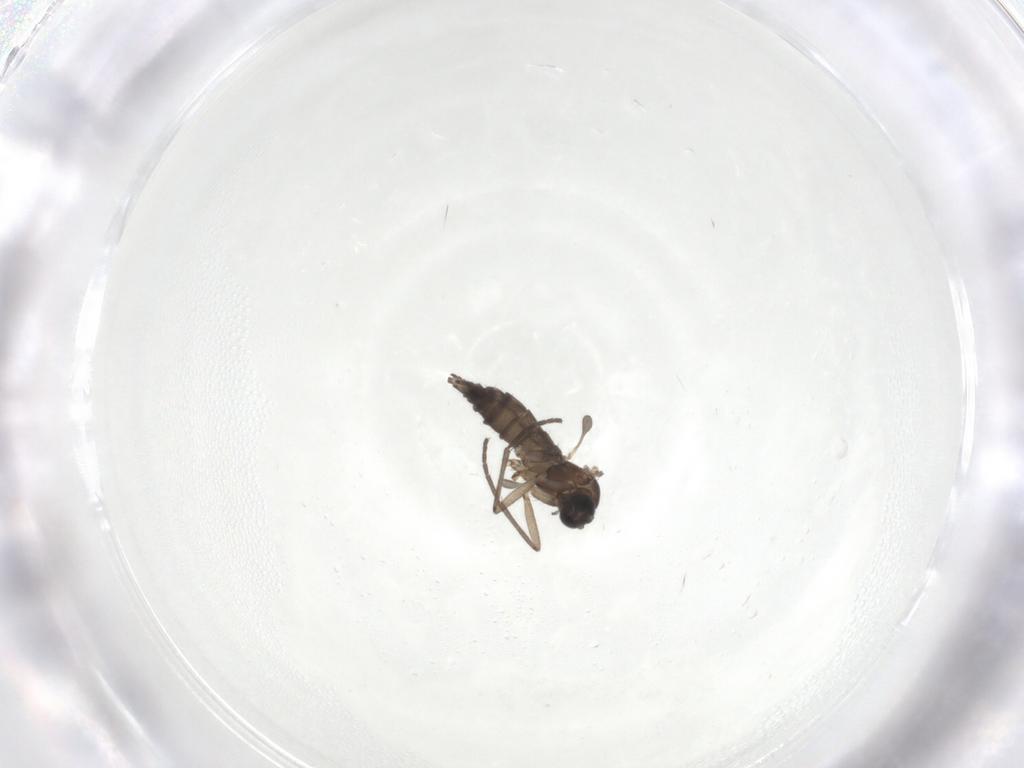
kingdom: Animalia
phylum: Arthropoda
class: Insecta
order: Diptera
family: Sciaridae
